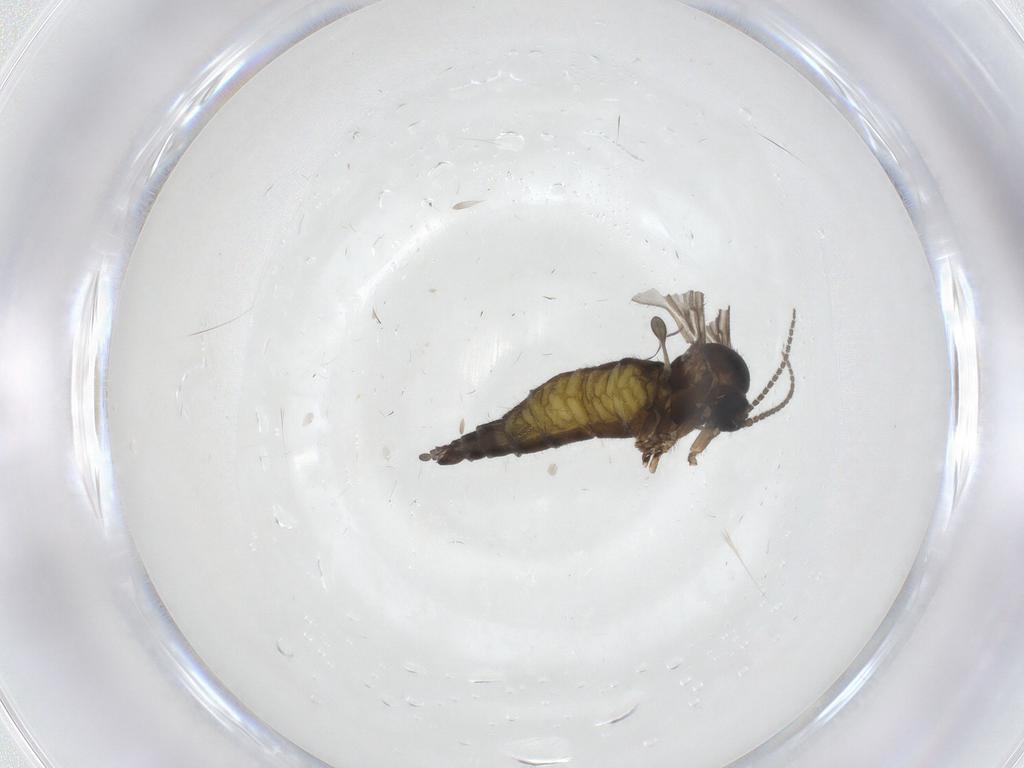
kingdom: Animalia
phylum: Arthropoda
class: Insecta
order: Diptera
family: Sciaridae
